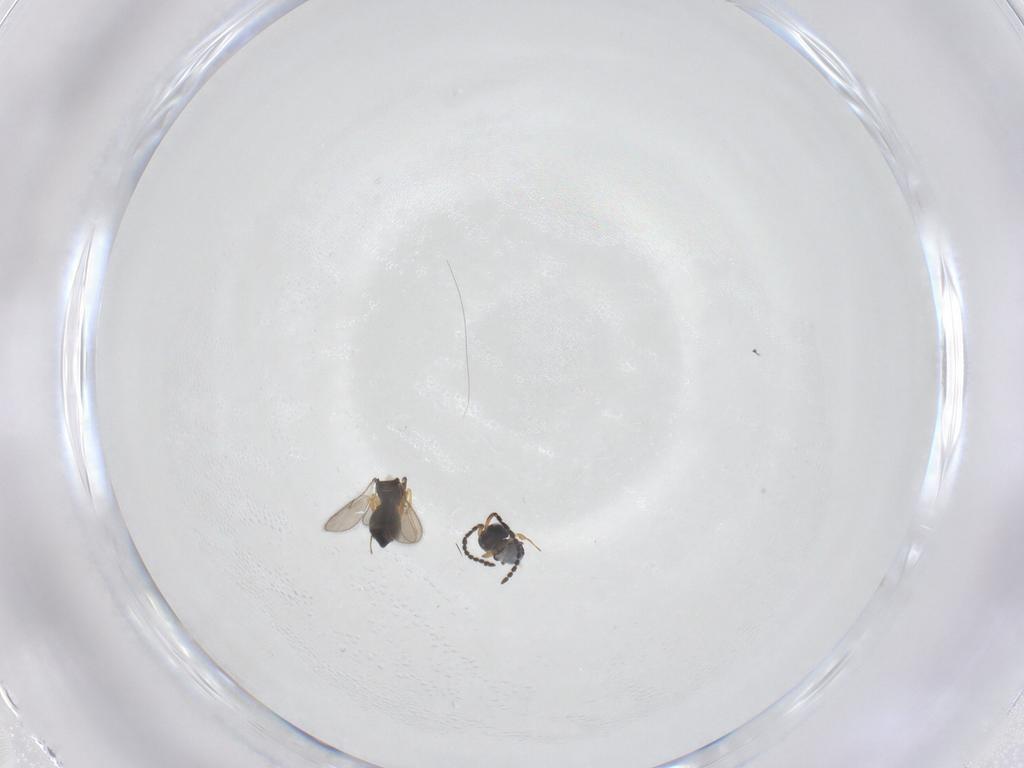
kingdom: Animalia
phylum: Arthropoda
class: Insecta
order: Hymenoptera
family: Scelionidae
